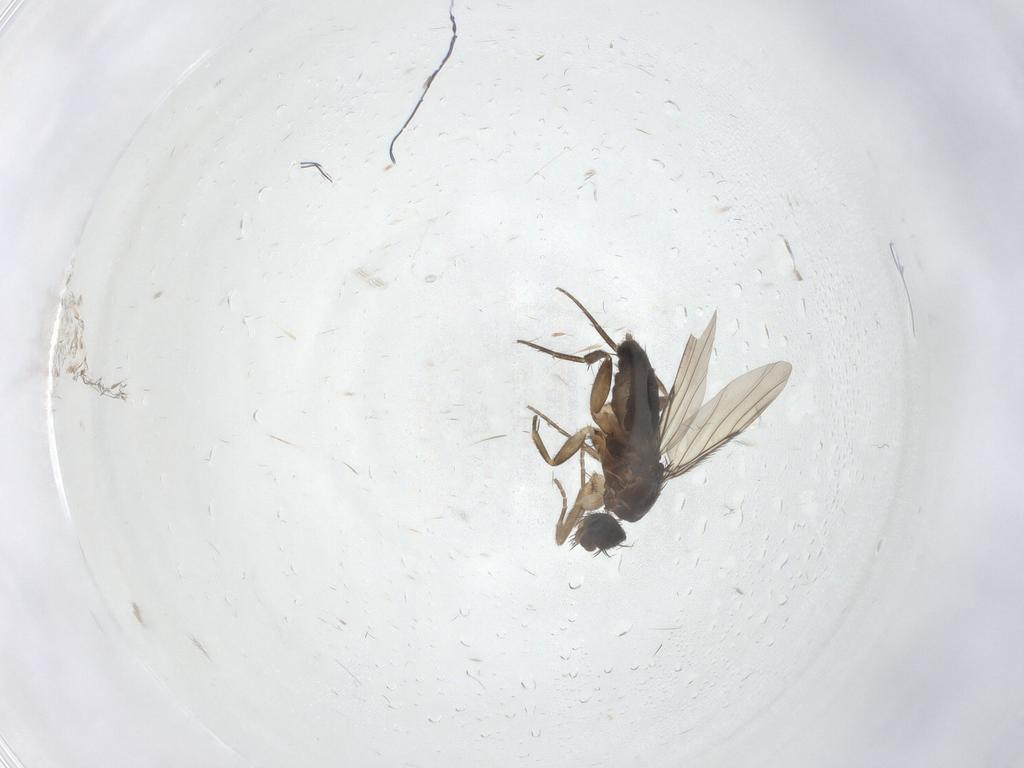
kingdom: Animalia
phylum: Arthropoda
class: Insecta
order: Diptera
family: Phoridae
